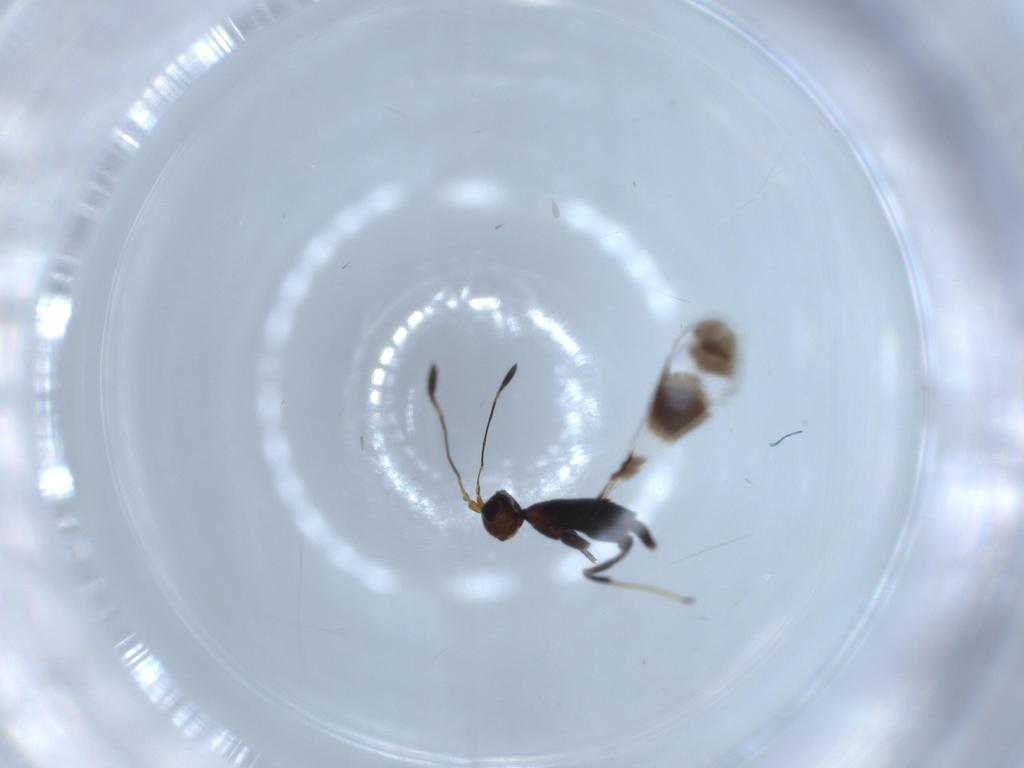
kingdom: Animalia
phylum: Arthropoda
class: Insecta
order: Hymenoptera
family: Mymaridae
